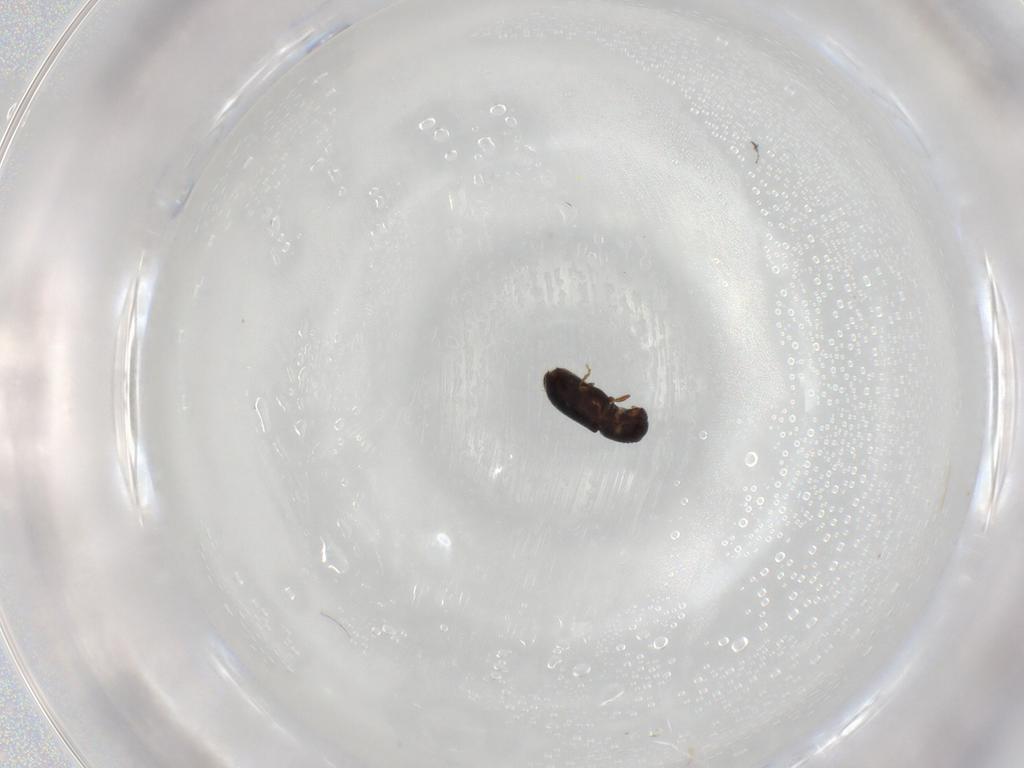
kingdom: Animalia
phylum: Arthropoda
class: Insecta
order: Coleoptera
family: Curculionidae
